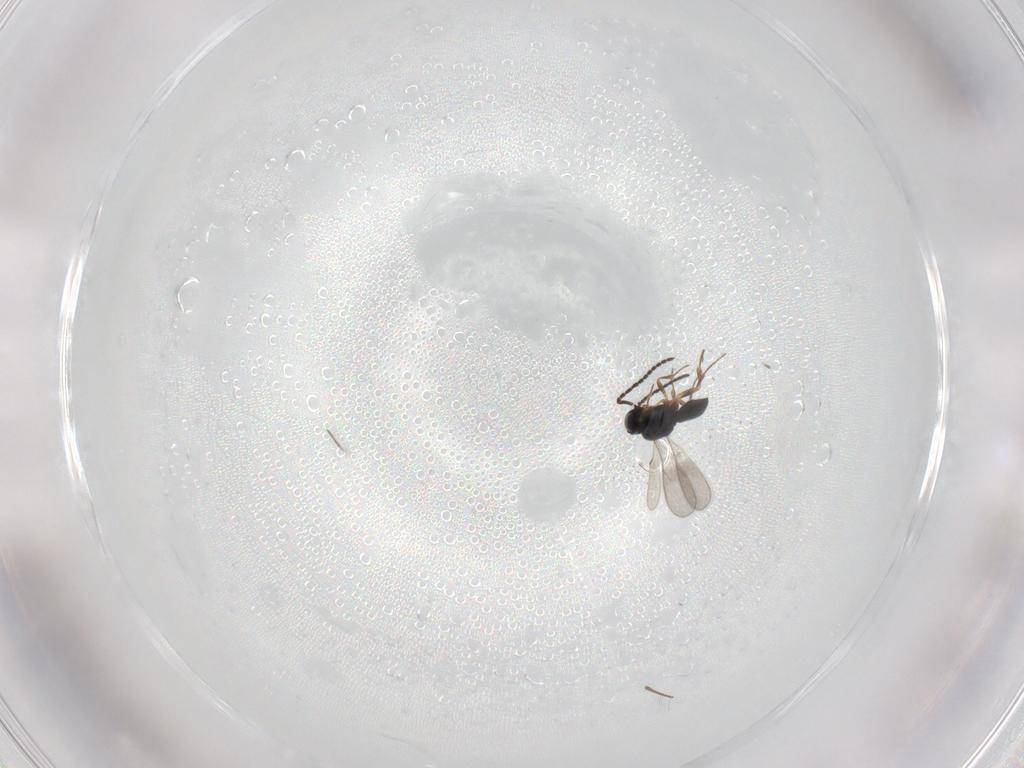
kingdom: Animalia
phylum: Arthropoda
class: Insecta
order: Hymenoptera
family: Scelionidae
